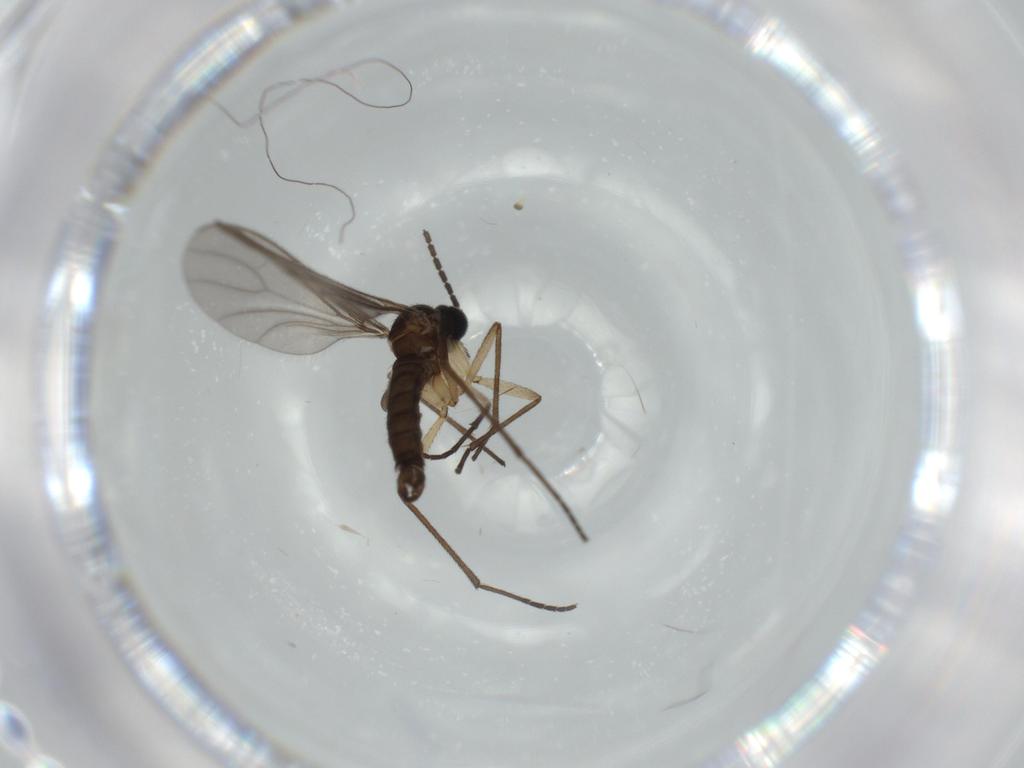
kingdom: Animalia
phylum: Arthropoda
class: Insecta
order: Diptera
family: Sciaridae
